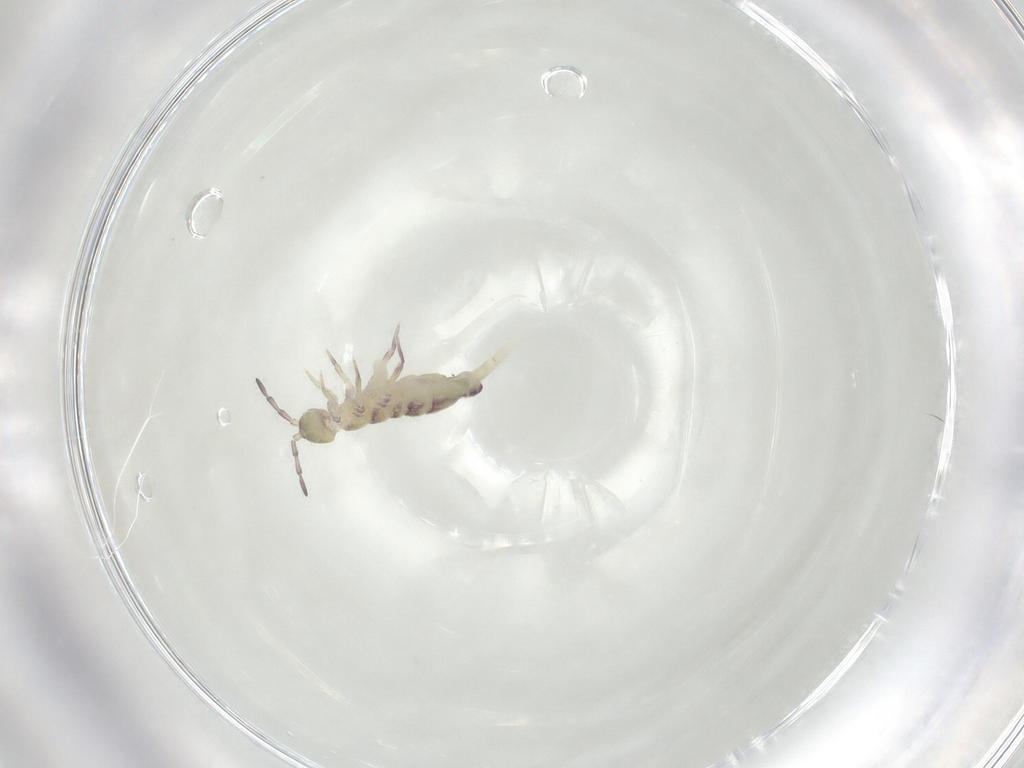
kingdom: Animalia
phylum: Arthropoda
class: Collembola
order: Entomobryomorpha
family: Isotomidae
